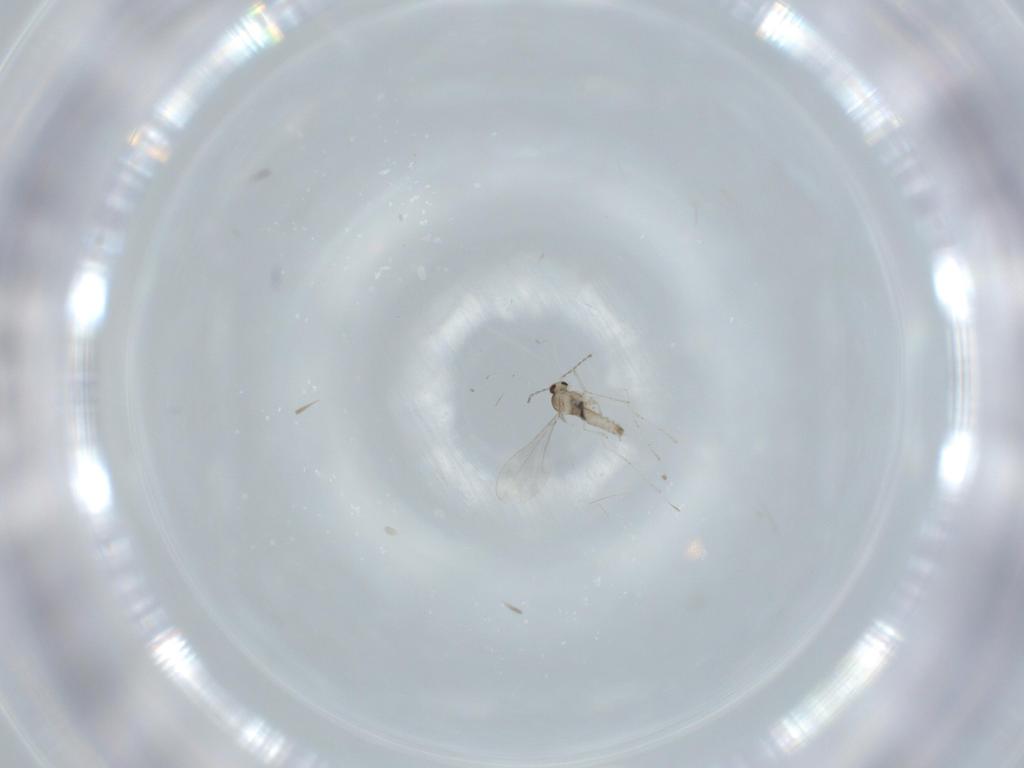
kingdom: Animalia
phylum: Arthropoda
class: Insecta
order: Diptera
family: Cecidomyiidae
